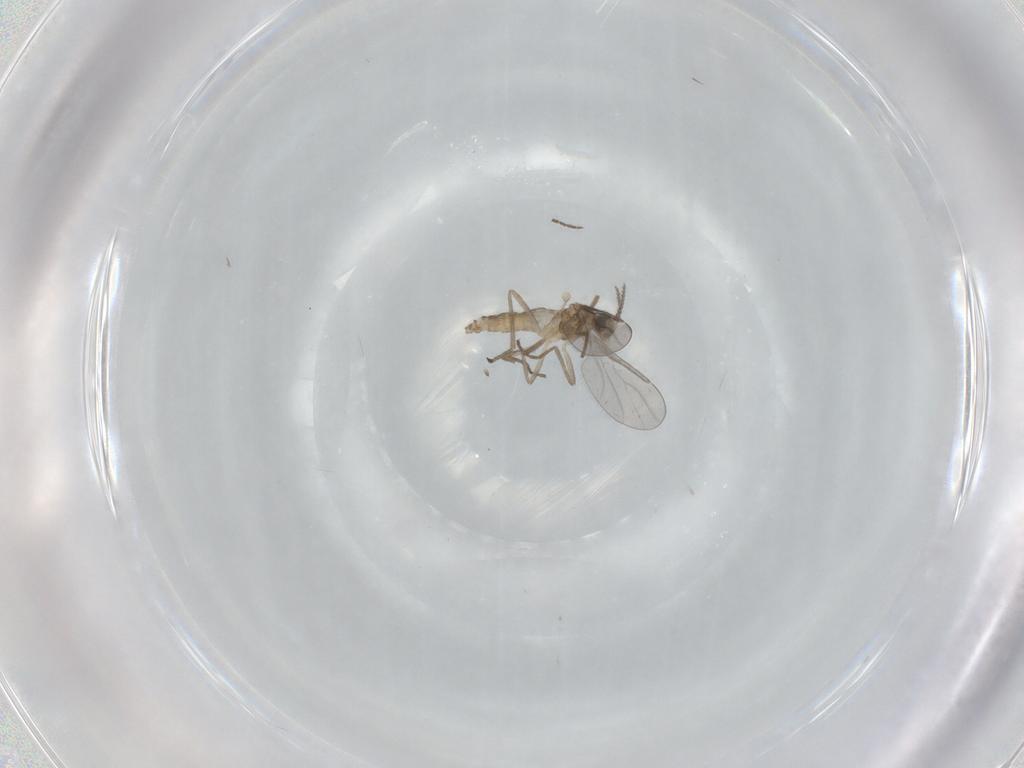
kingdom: Animalia
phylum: Arthropoda
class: Insecta
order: Diptera
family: Cecidomyiidae
